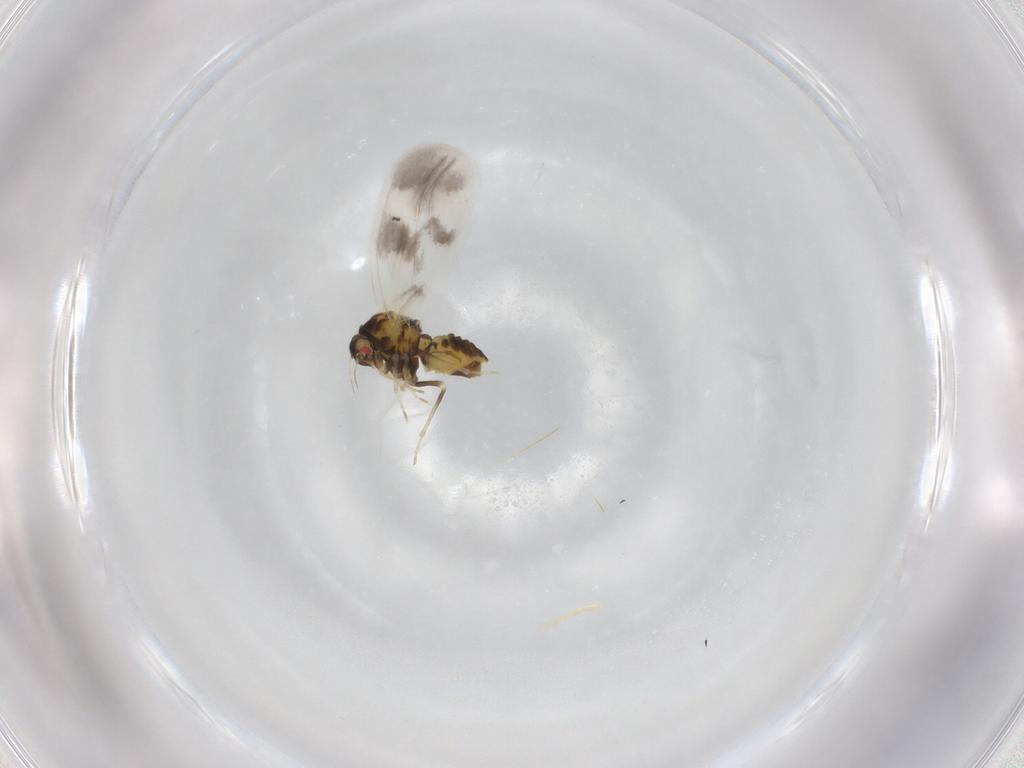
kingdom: Animalia
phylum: Arthropoda
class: Insecta
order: Hemiptera
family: Aleyrodidae
